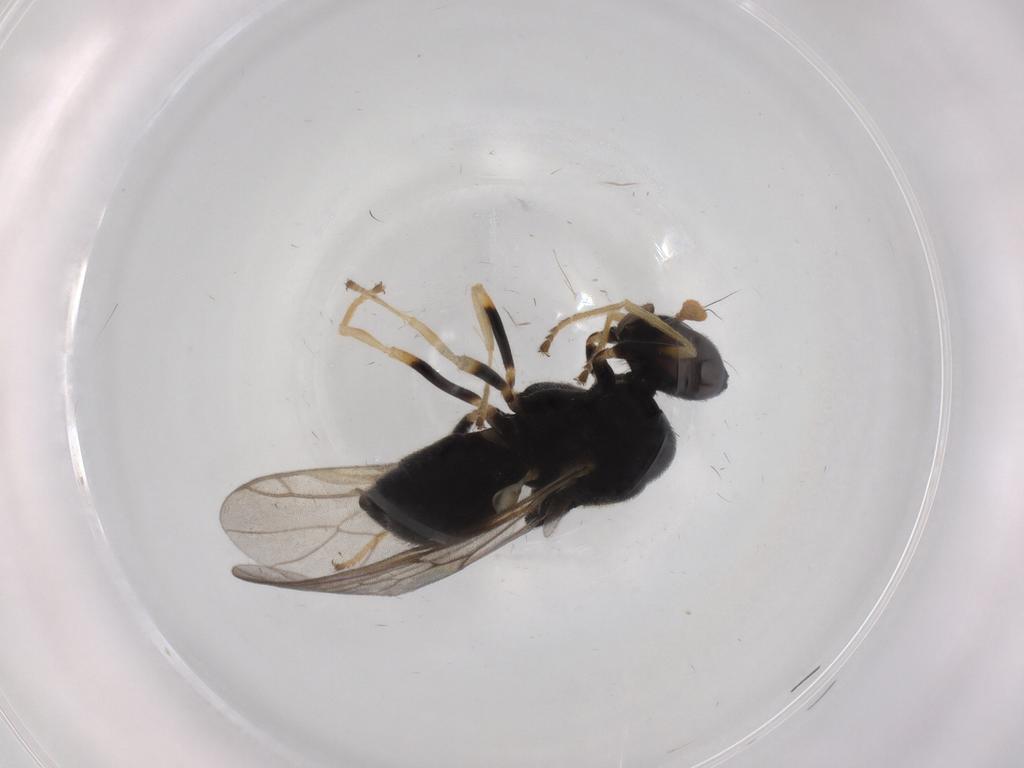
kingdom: Animalia
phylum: Arthropoda
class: Insecta
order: Diptera
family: Stratiomyidae
